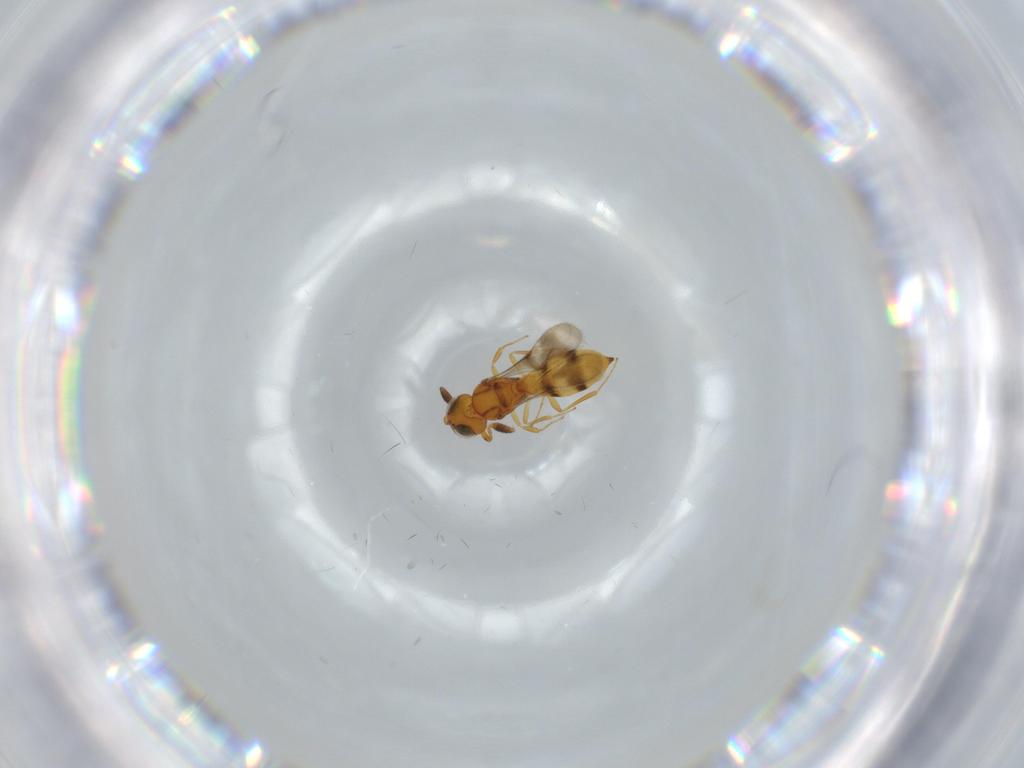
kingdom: Animalia
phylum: Arthropoda
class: Insecta
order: Hymenoptera
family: Scelionidae
